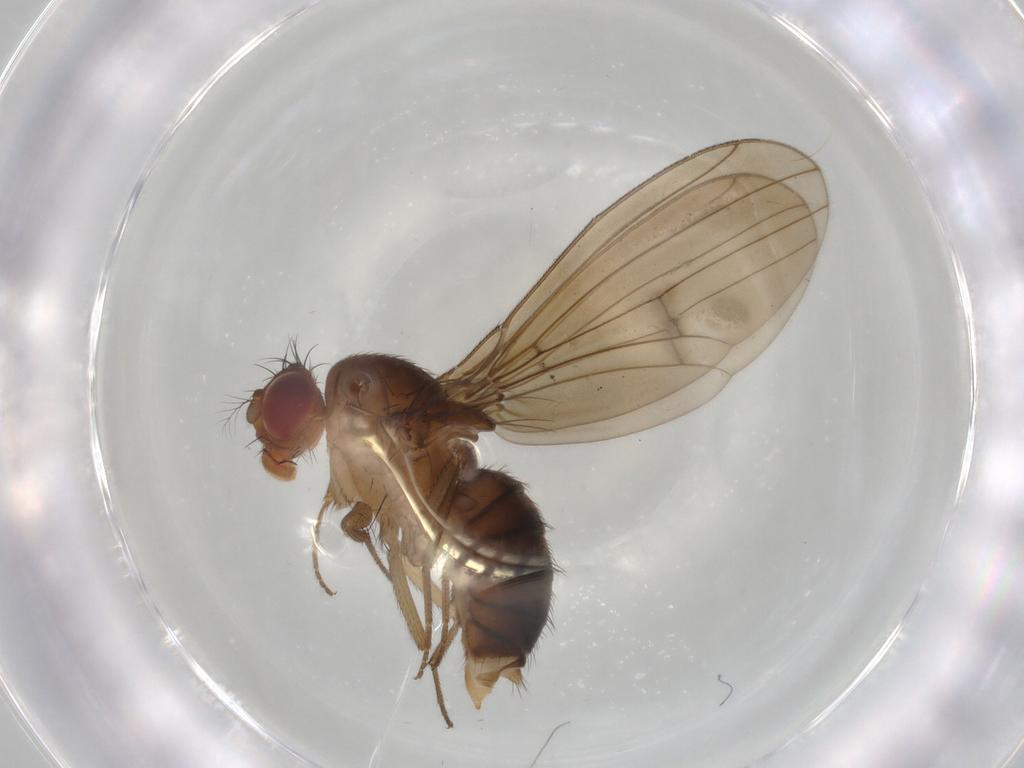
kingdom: Animalia
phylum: Arthropoda
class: Insecta
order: Diptera
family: Drosophilidae
